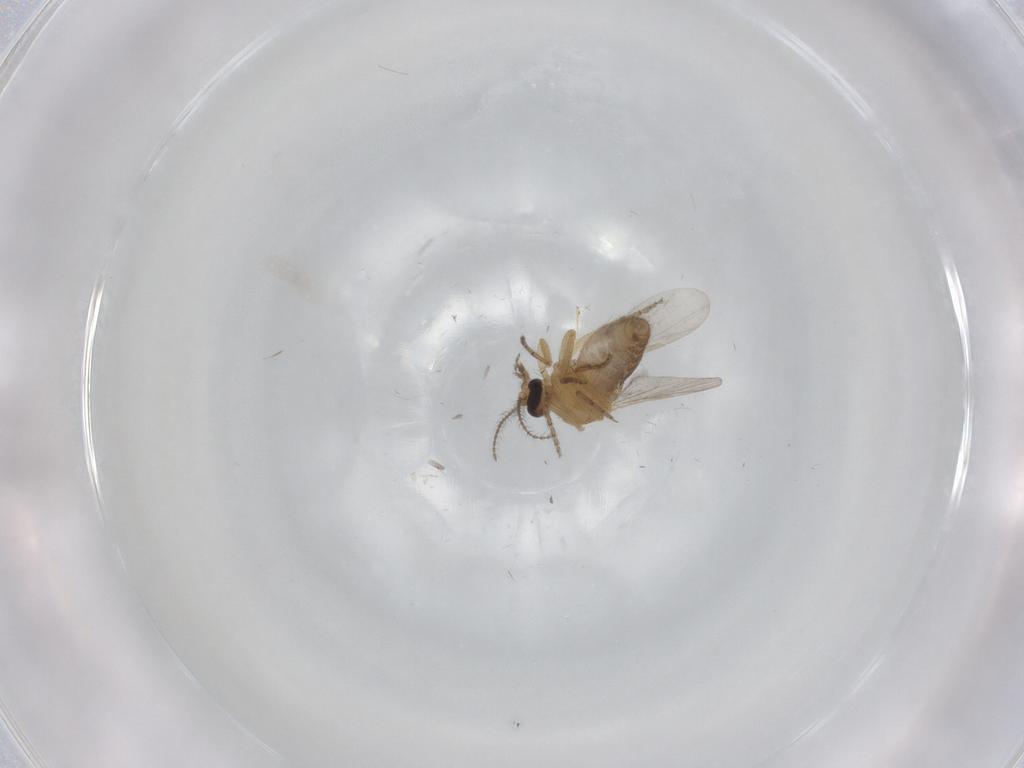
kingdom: Animalia
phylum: Arthropoda
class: Insecta
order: Diptera
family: Ceratopogonidae
